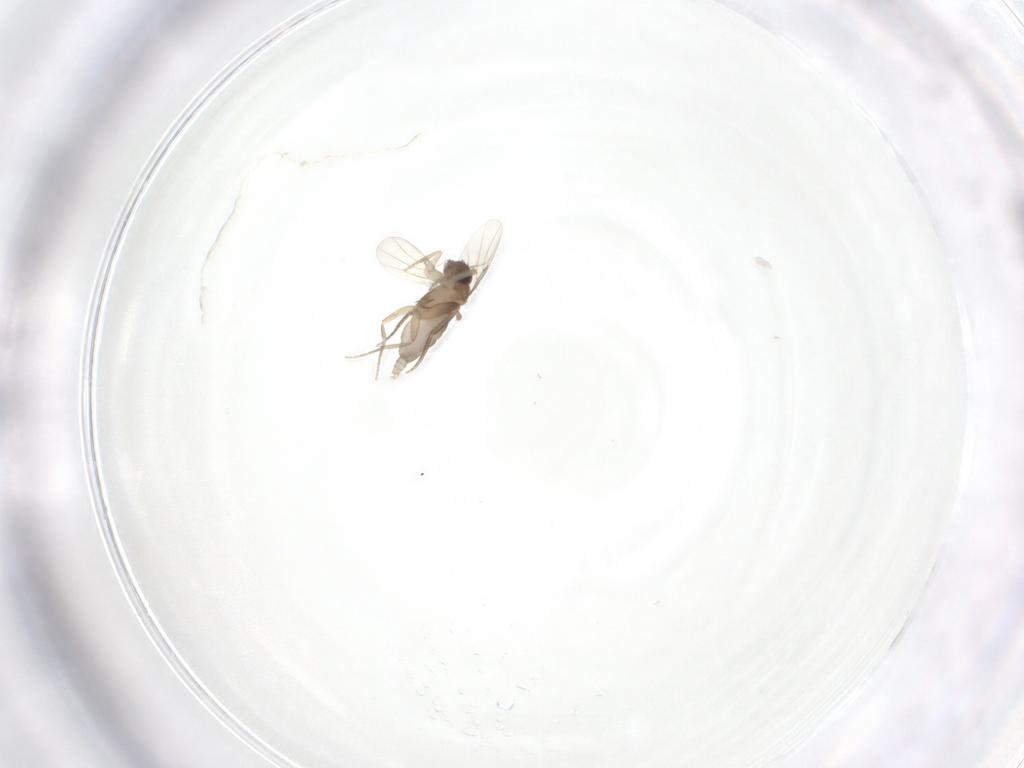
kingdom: Animalia
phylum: Arthropoda
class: Insecta
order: Diptera
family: Phoridae
